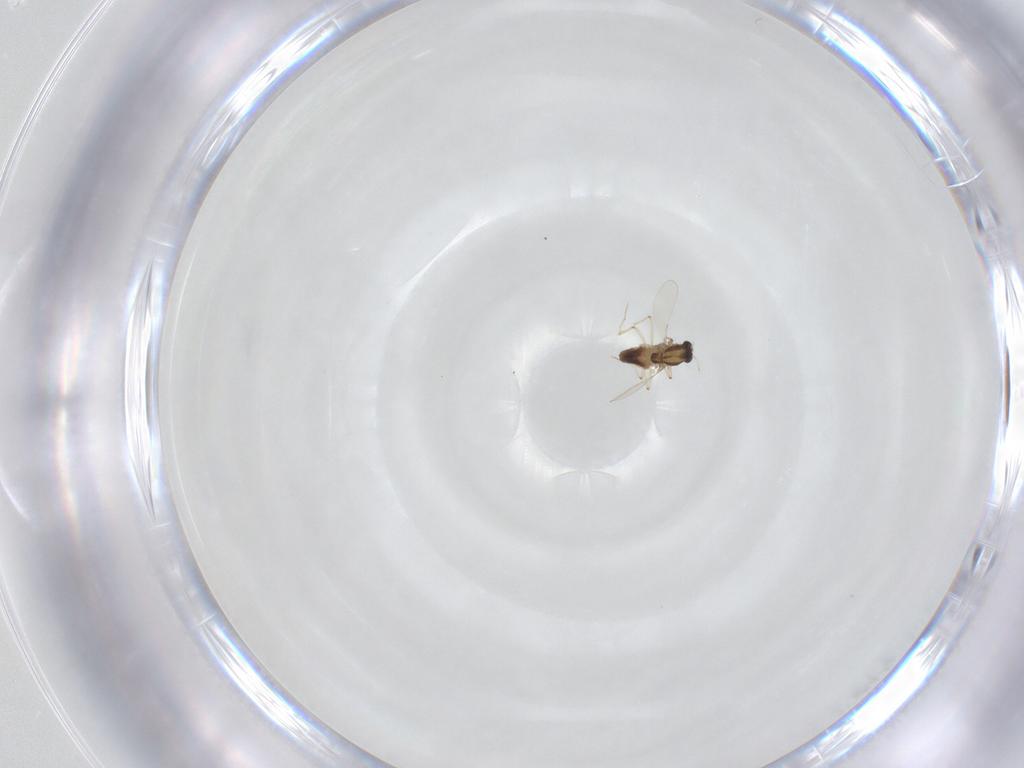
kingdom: Animalia
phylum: Arthropoda
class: Insecta
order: Diptera
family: Chironomidae
